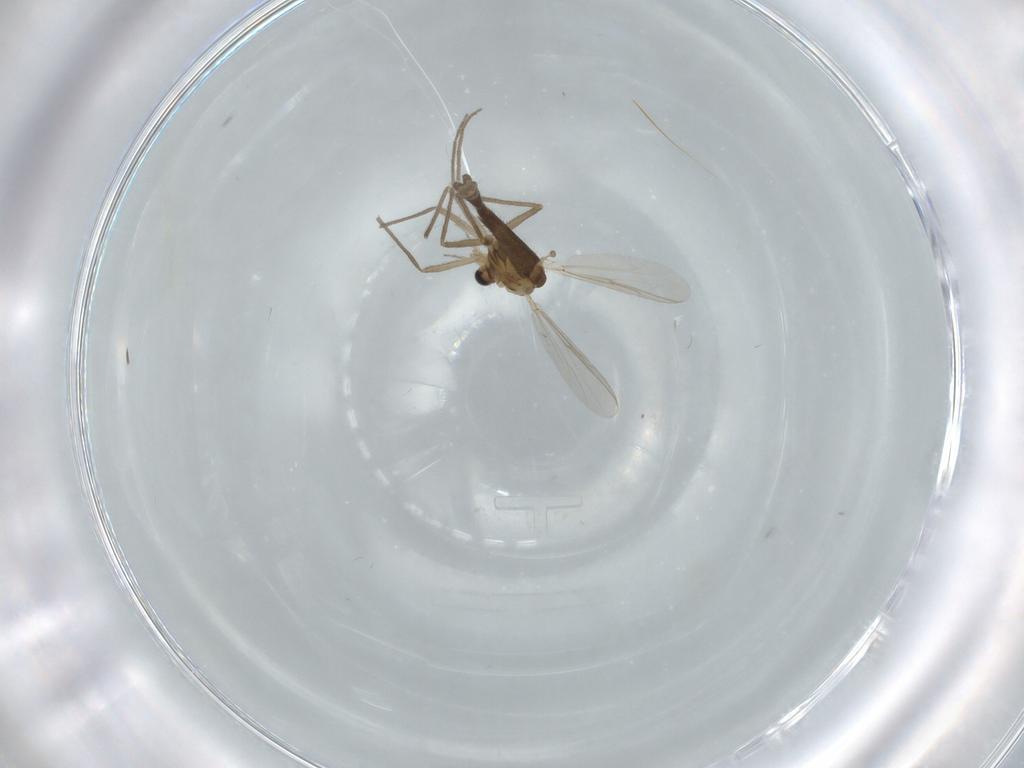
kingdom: Animalia
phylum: Arthropoda
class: Insecta
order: Diptera
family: Chironomidae
